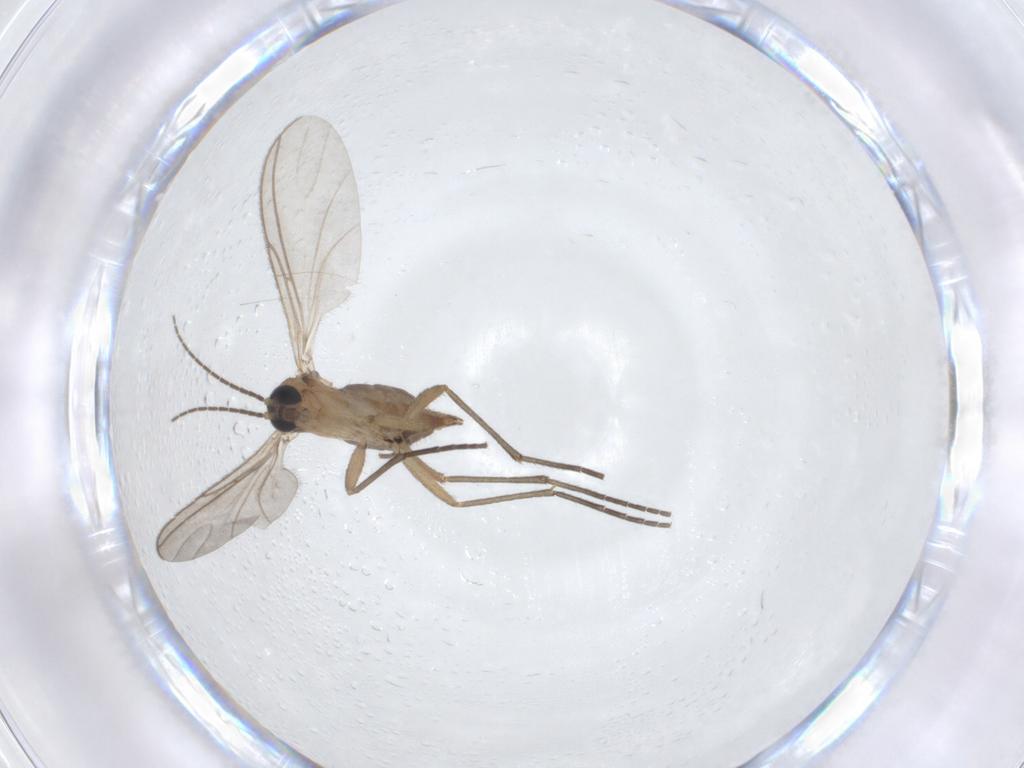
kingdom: Animalia
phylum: Arthropoda
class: Insecta
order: Diptera
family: Sciaridae
